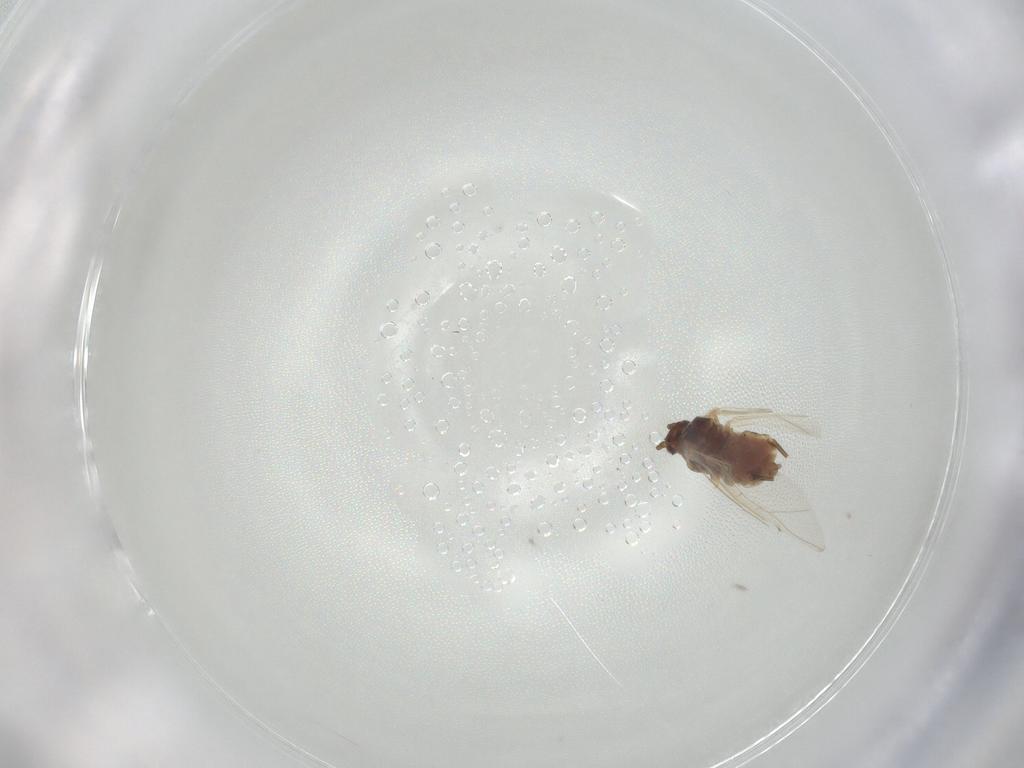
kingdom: Animalia
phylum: Arthropoda
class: Insecta
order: Hemiptera
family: Aphididae
